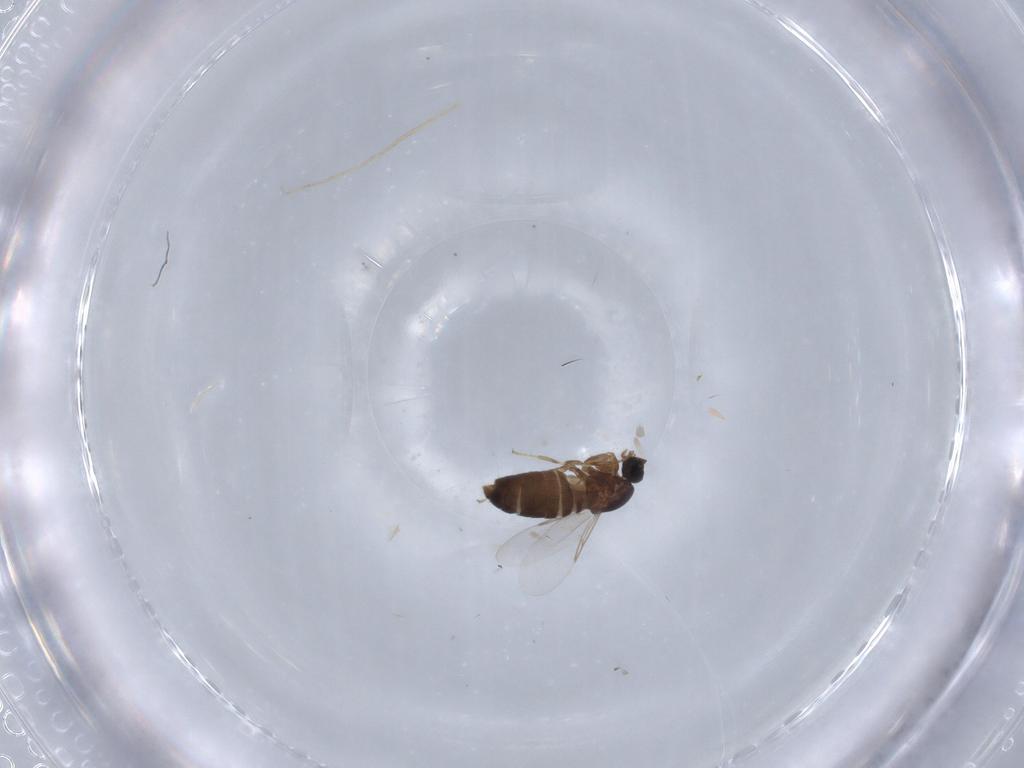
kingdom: Animalia
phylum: Arthropoda
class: Insecta
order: Diptera
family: Scatopsidae
